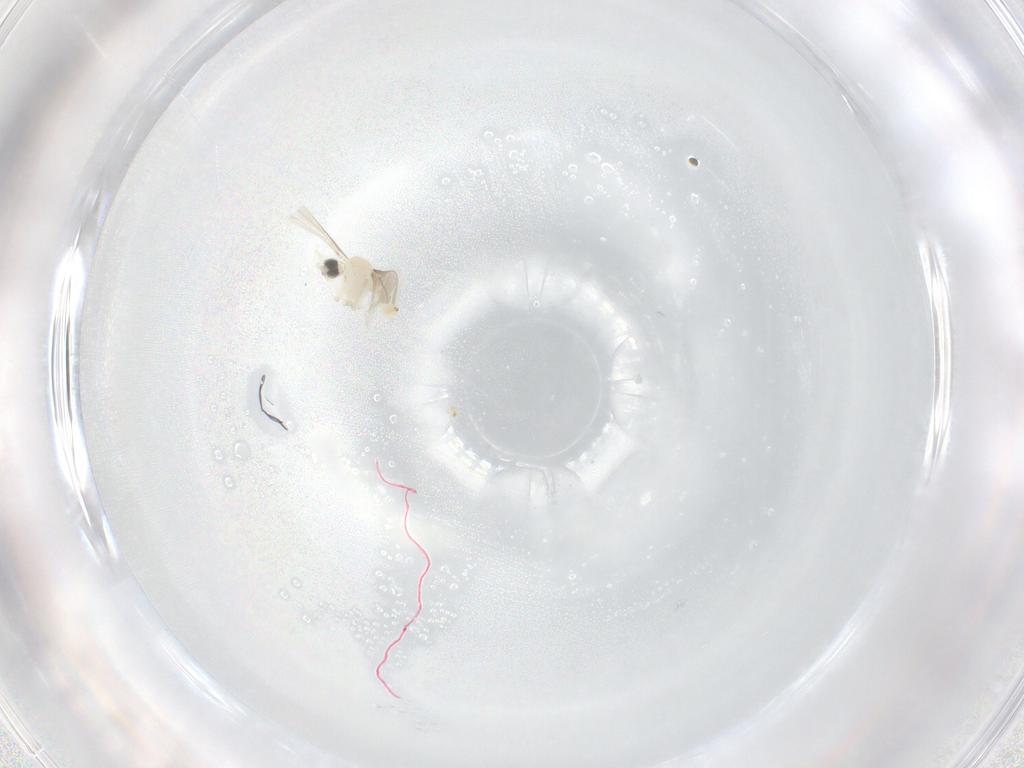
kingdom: Animalia
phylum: Arthropoda
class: Insecta
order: Diptera
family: Cecidomyiidae
